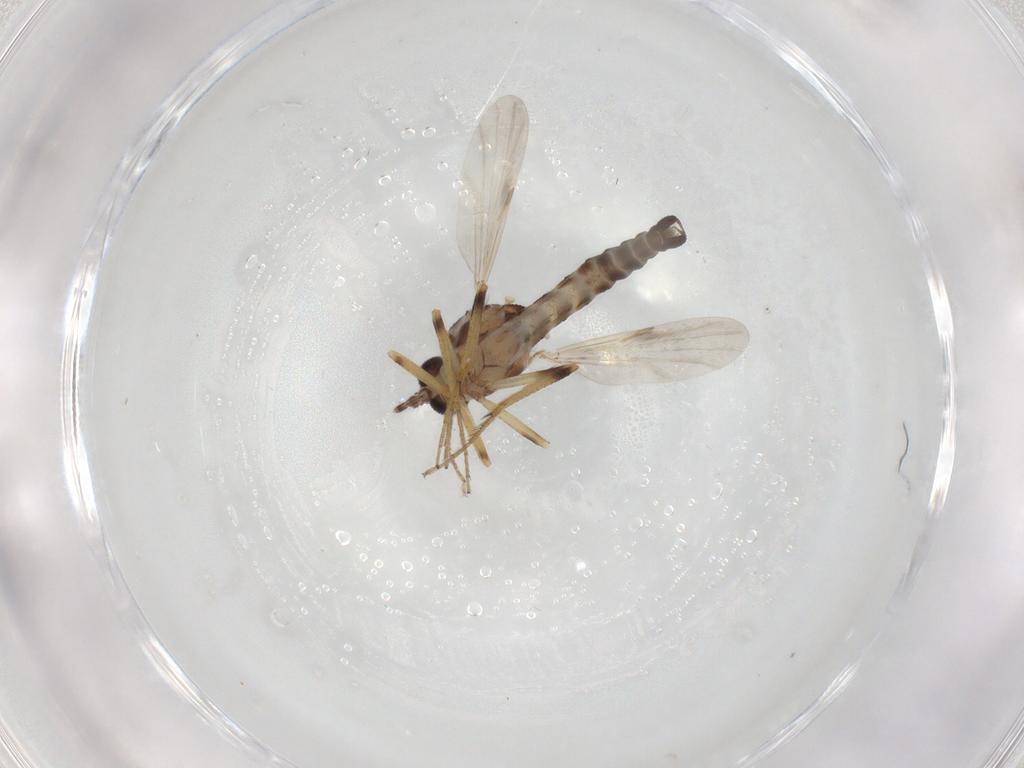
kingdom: Animalia
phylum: Arthropoda
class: Insecta
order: Diptera
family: Ceratopogonidae
